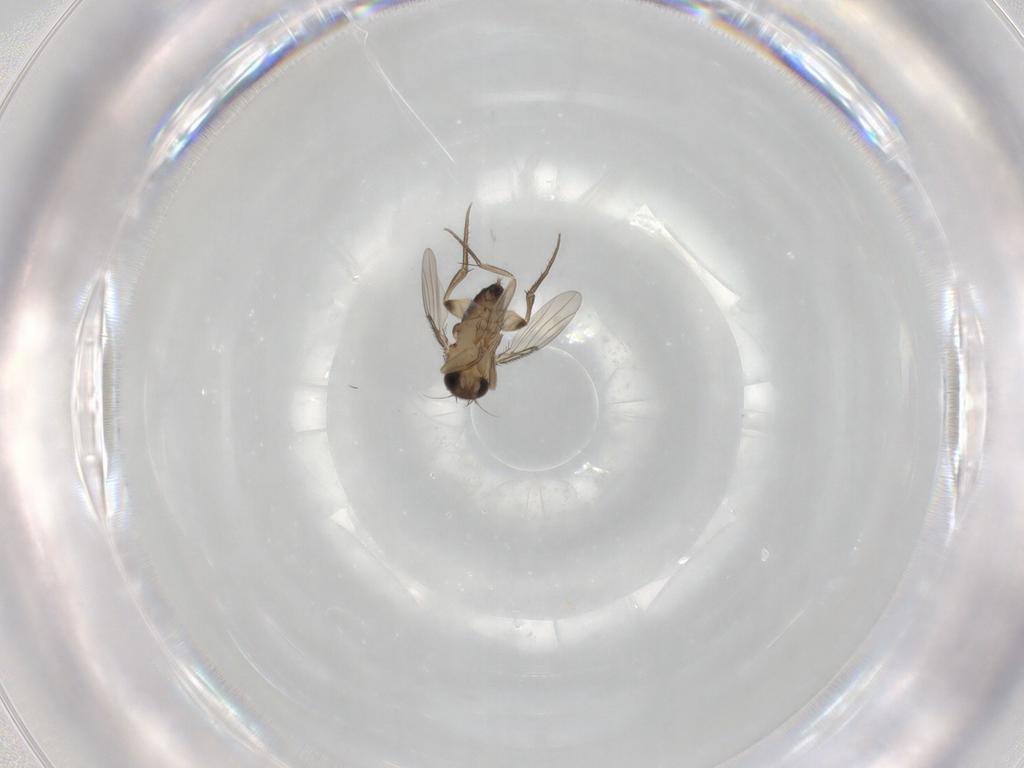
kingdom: Animalia
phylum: Arthropoda
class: Insecta
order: Diptera
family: Phoridae
